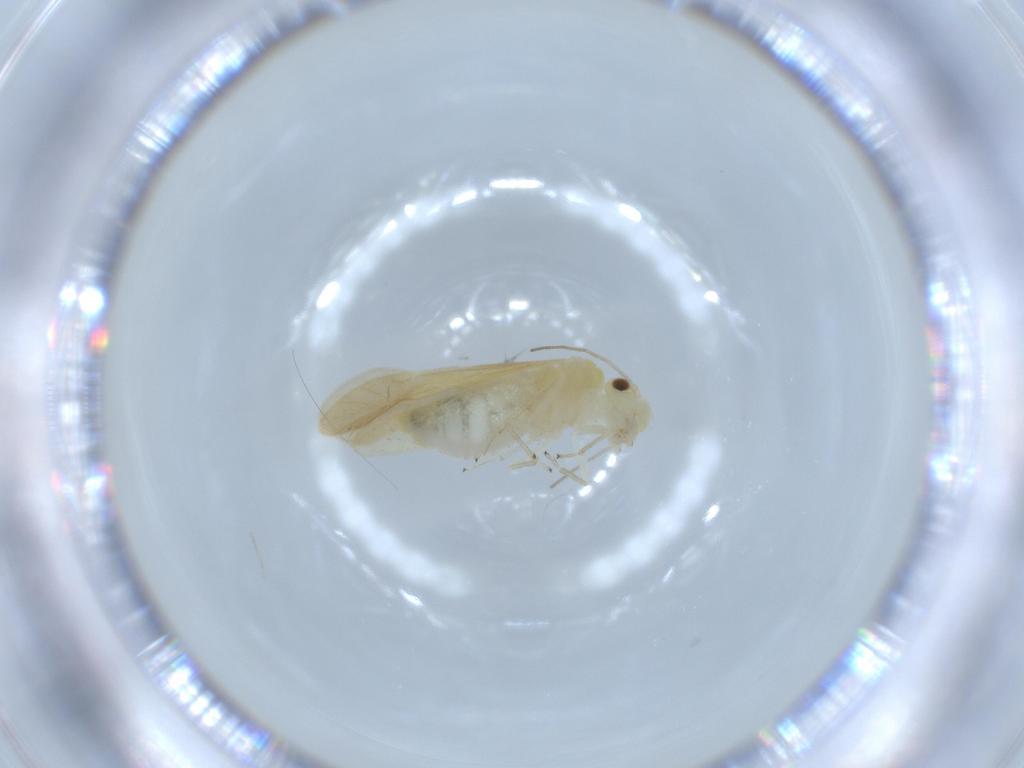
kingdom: Animalia
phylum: Arthropoda
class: Insecta
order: Psocodea
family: Caeciliusidae
